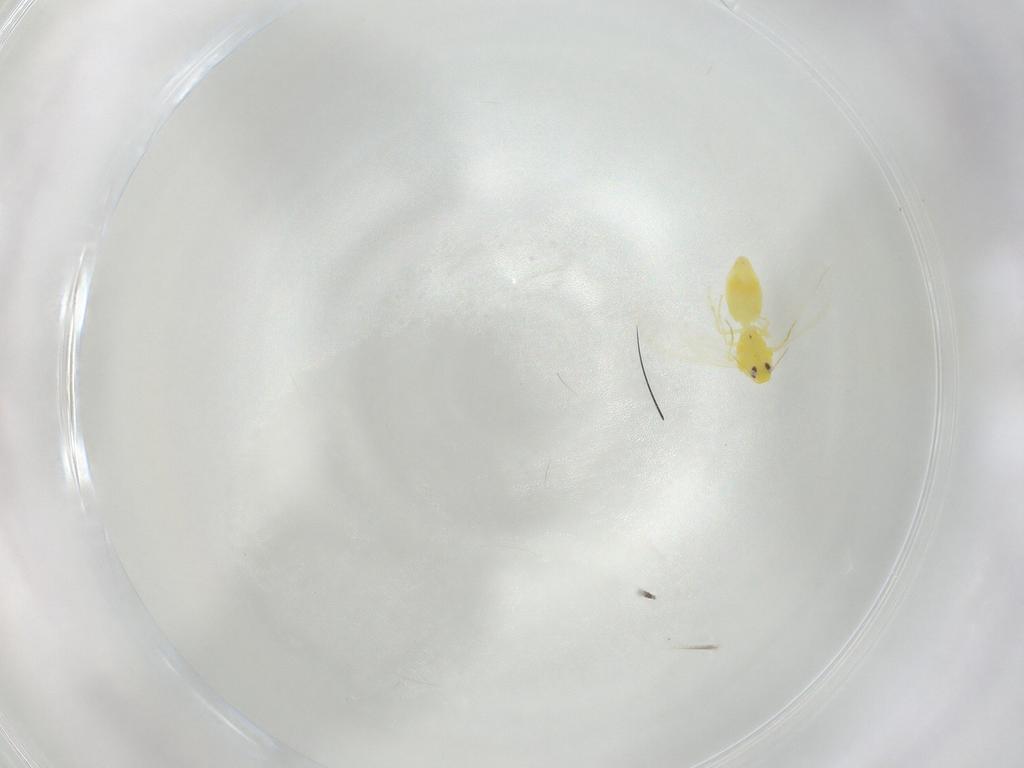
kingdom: Animalia
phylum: Arthropoda
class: Insecta
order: Hemiptera
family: Aleyrodidae
